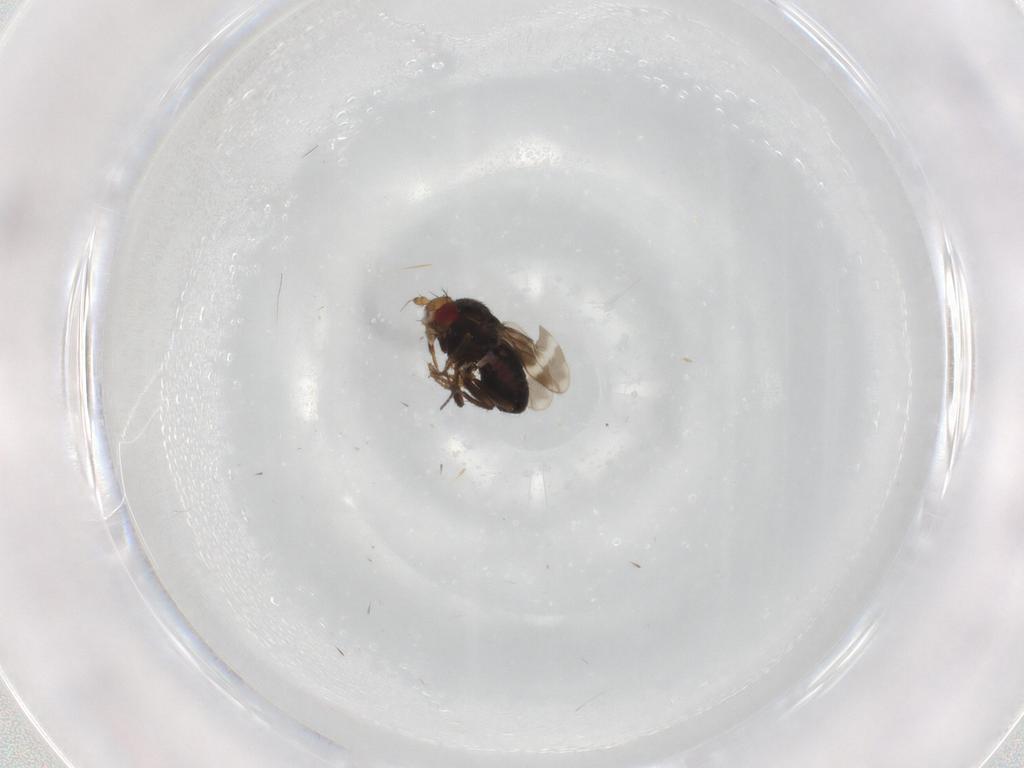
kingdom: Animalia
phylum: Arthropoda
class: Insecta
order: Diptera
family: Sphaeroceridae
